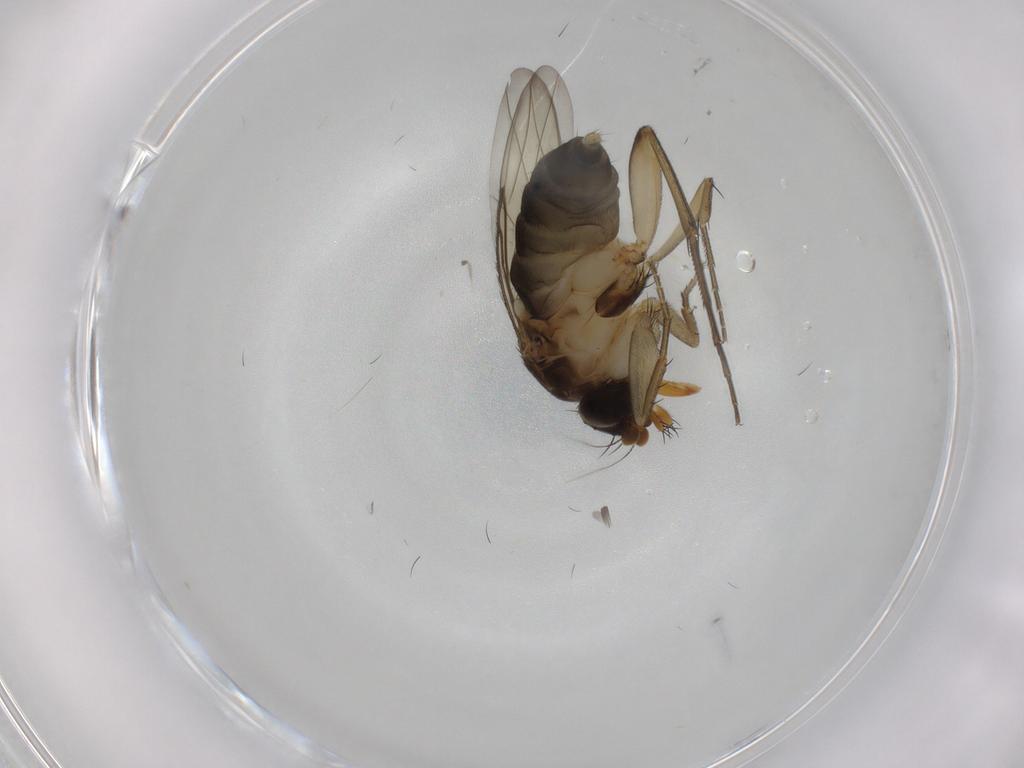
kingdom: Animalia
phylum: Arthropoda
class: Insecta
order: Diptera
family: Phoridae
